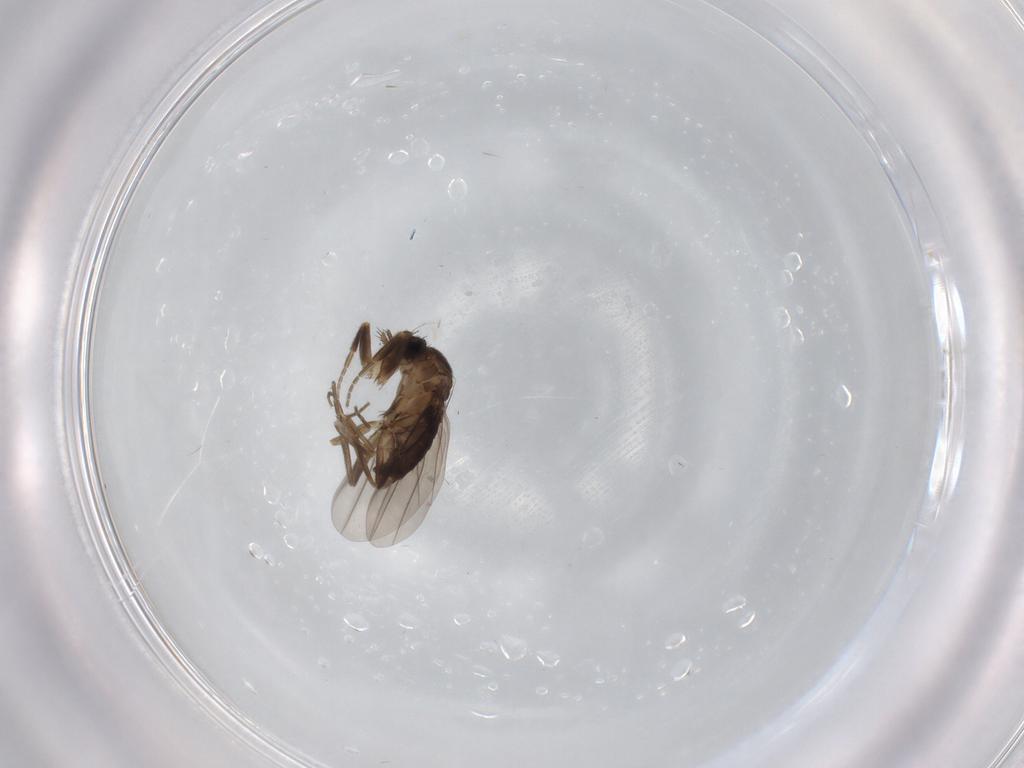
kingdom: Animalia
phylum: Arthropoda
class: Insecta
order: Diptera
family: Phoridae
